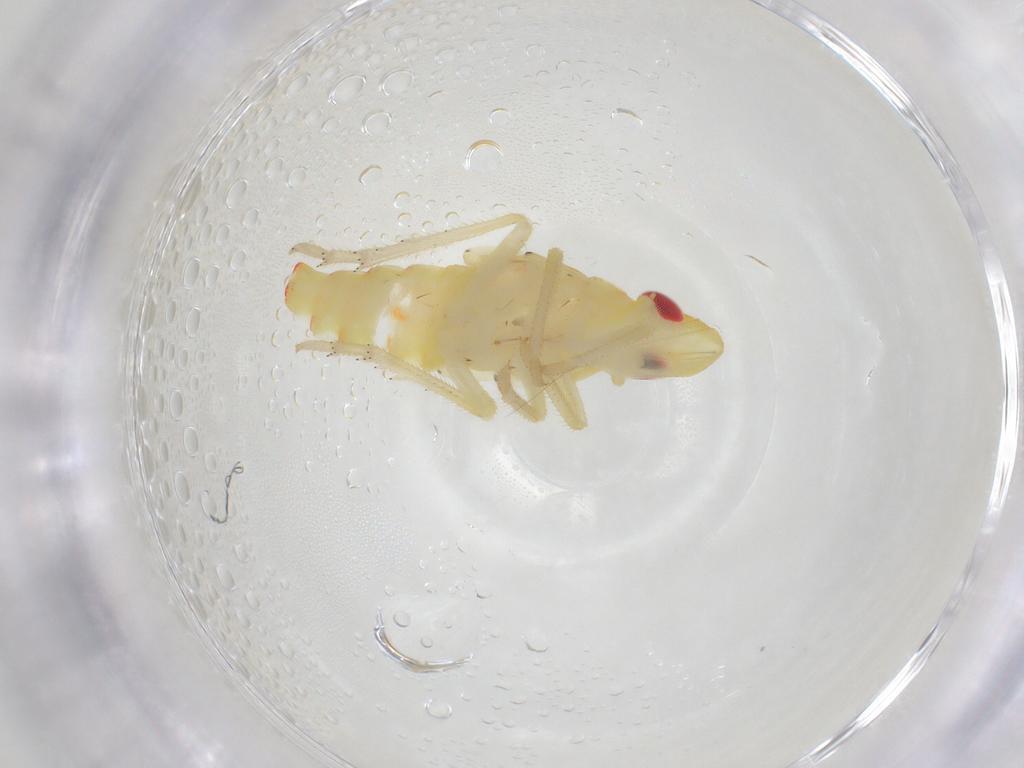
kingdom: Animalia
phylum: Arthropoda
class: Insecta
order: Hemiptera
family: Tropiduchidae
